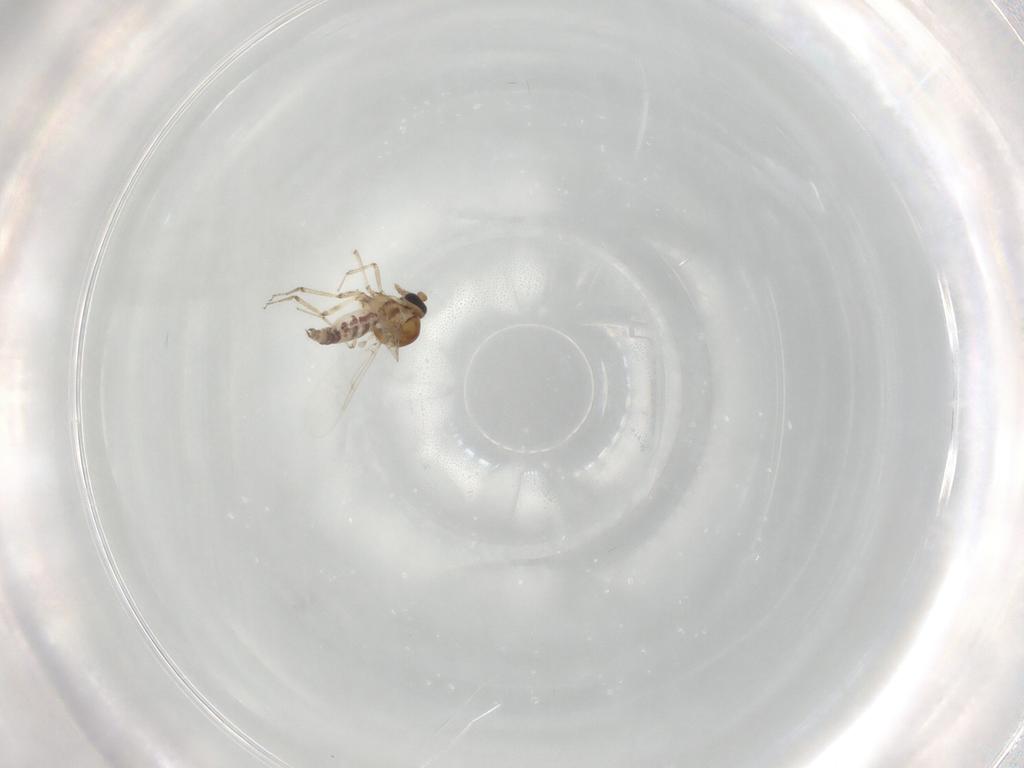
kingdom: Animalia
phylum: Arthropoda
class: Insecta
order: Diptera
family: Ceratopogonidae
